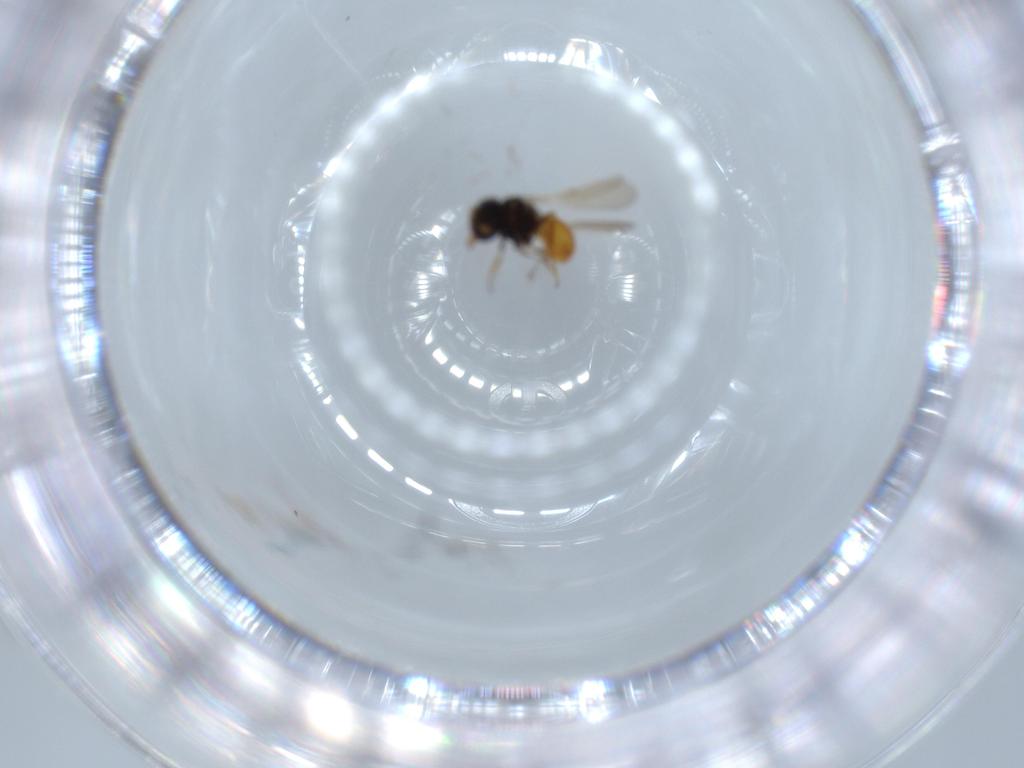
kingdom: Animalia
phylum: Arthropoda
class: Insecta
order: Hymenoptera
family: Scelionidae
